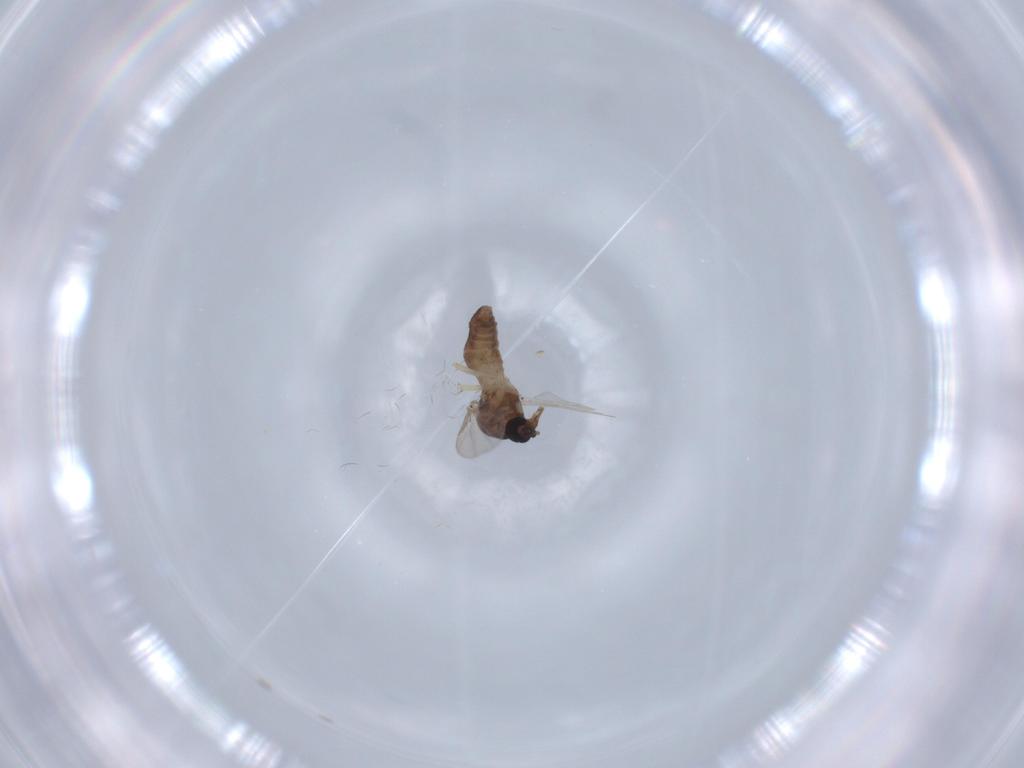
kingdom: Animalia
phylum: Arthropoda
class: Insecta
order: Diptera
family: Ceratopogonidae
